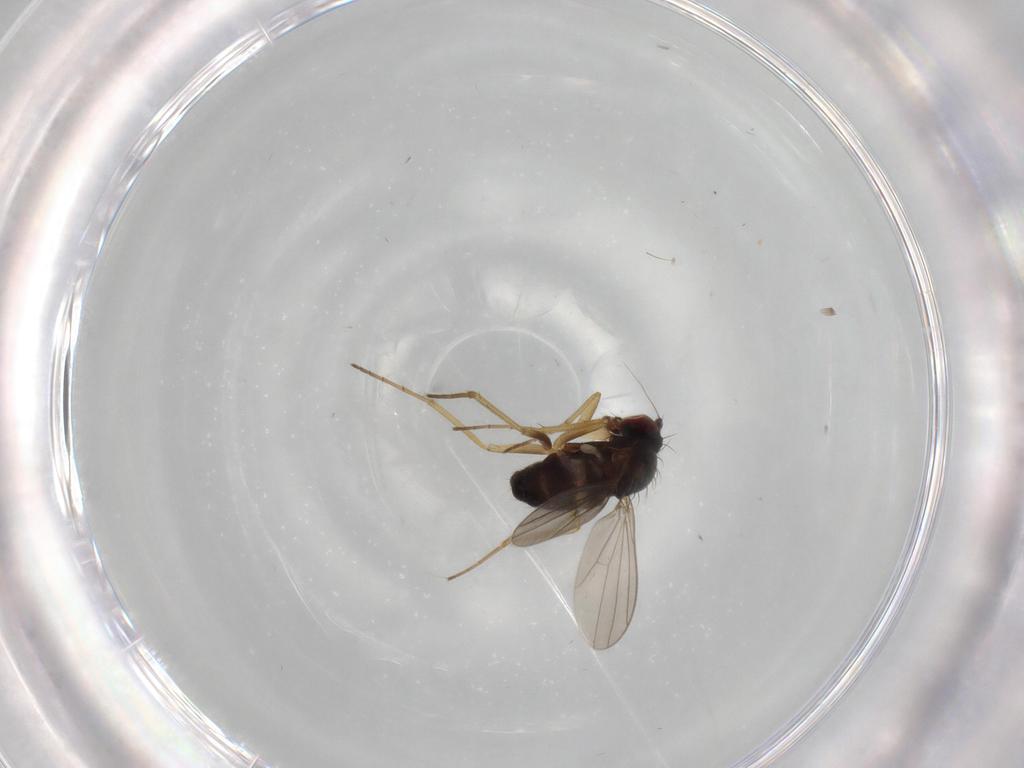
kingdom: Animalia
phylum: Arthropoda
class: Insecta
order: Diptera
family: Dolichopodidae
